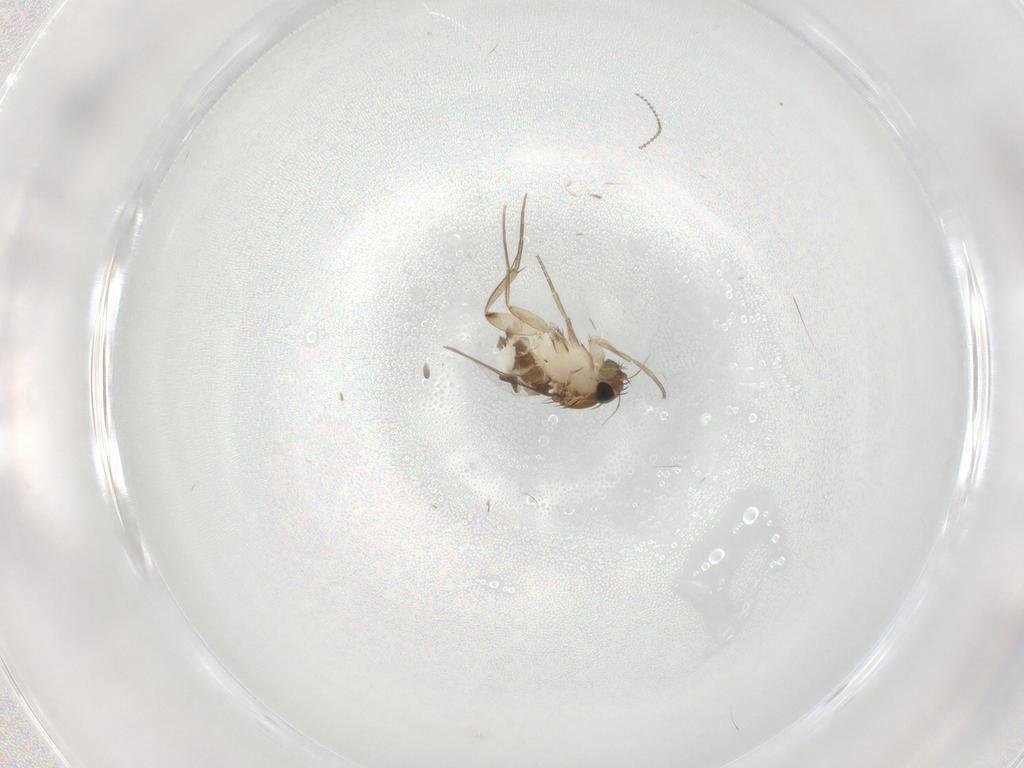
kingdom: Animalia
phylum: Arthropoda
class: Insecta
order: Diptera
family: Phoridae
